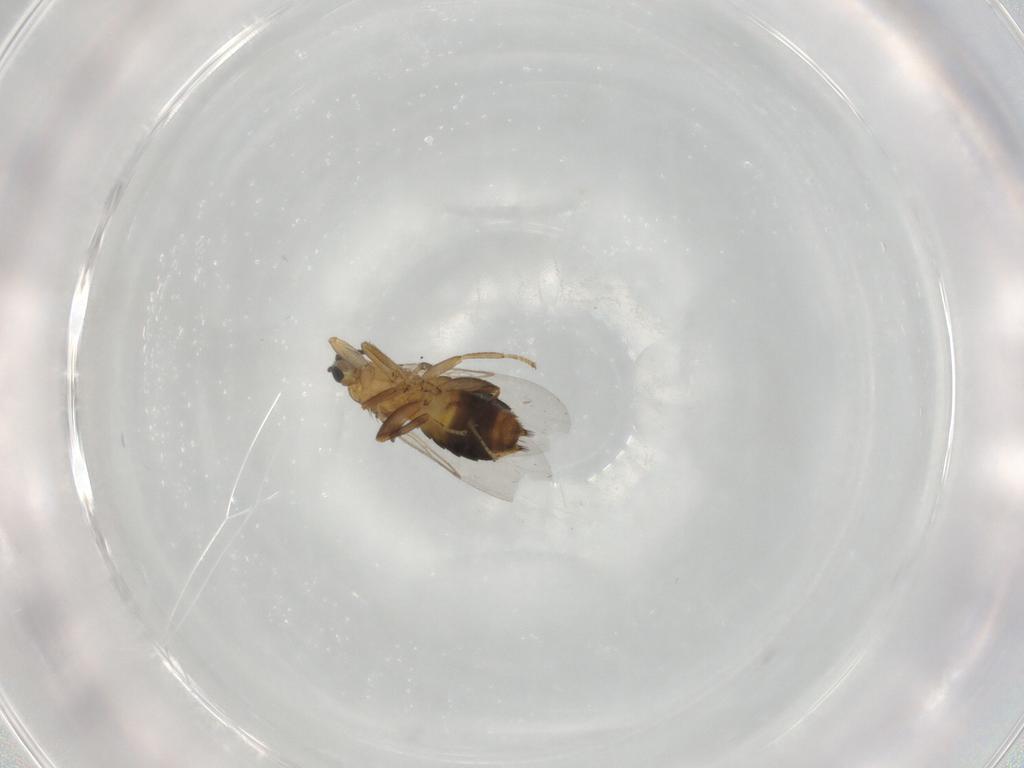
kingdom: Animalia
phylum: Arthropoda
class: Insecta
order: Diptera
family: Scatopsidae
